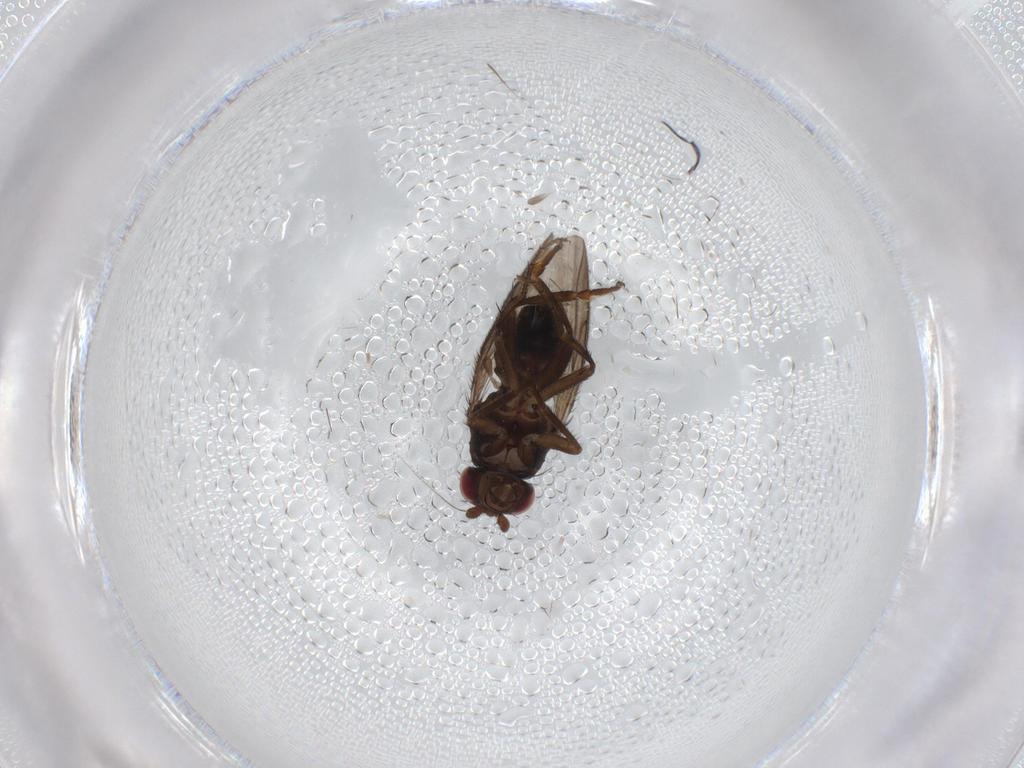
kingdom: Animalia
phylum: Arthropoda
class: Insecta
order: Diptera
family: Sphaeroceridae
